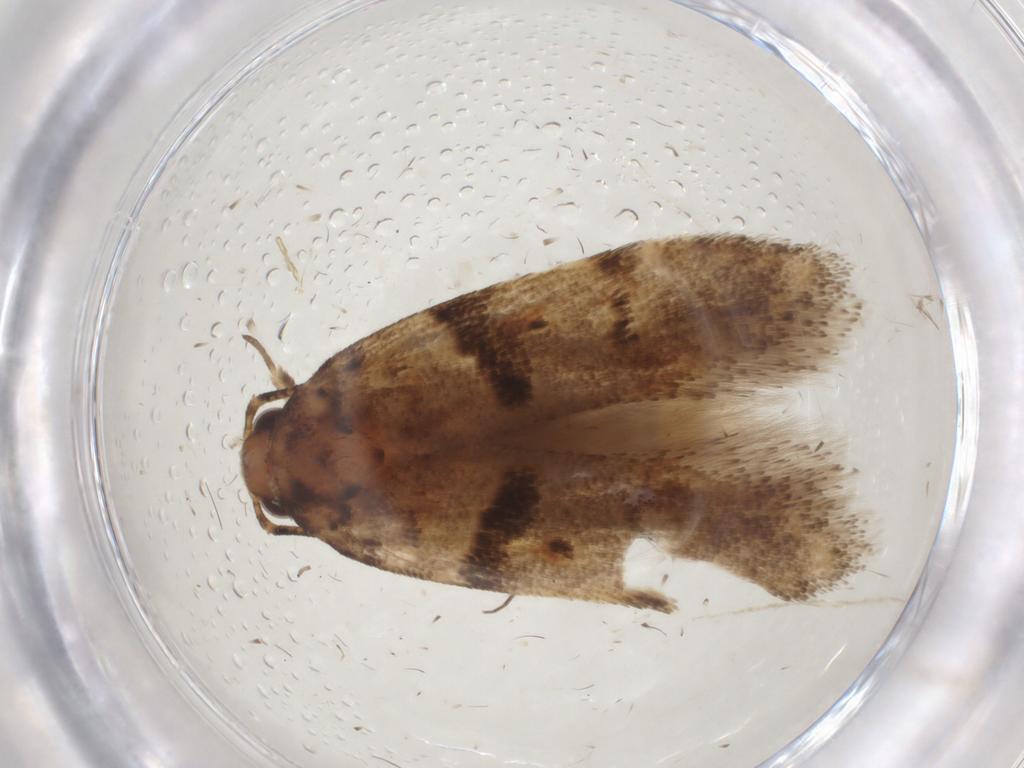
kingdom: Animalia
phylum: Arthropoda
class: Insecta
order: Lepidoptera
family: Gelechiidae
